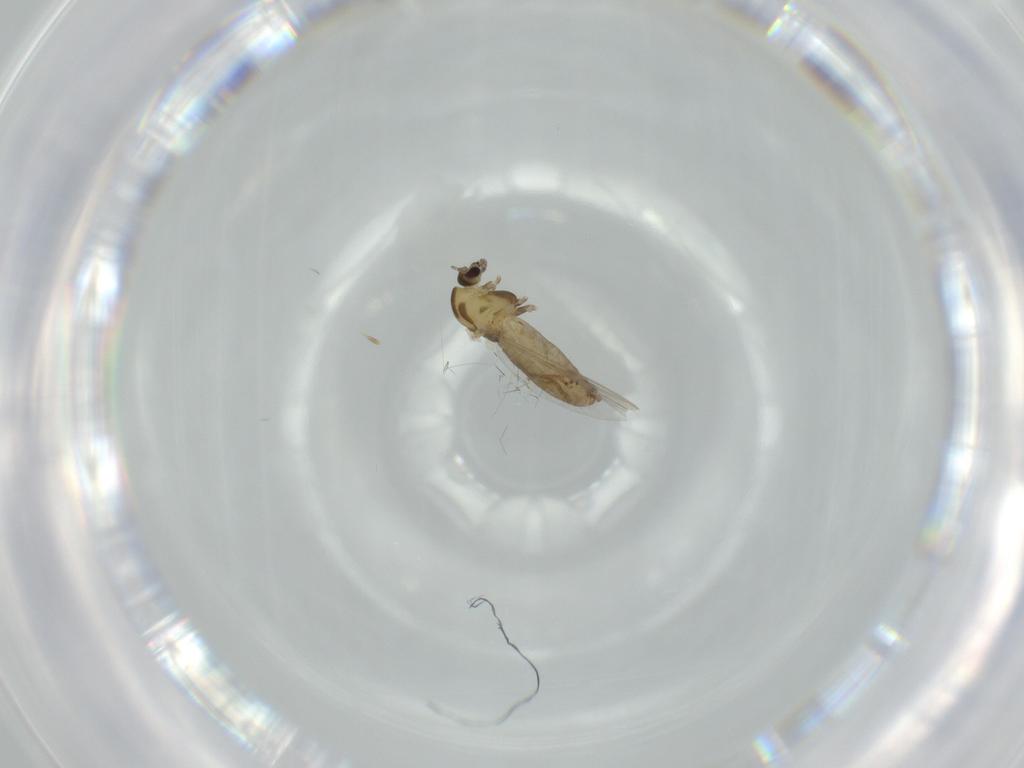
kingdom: Animalia
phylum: Arthropoda
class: Insecta
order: Diptera
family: Chironomidae
